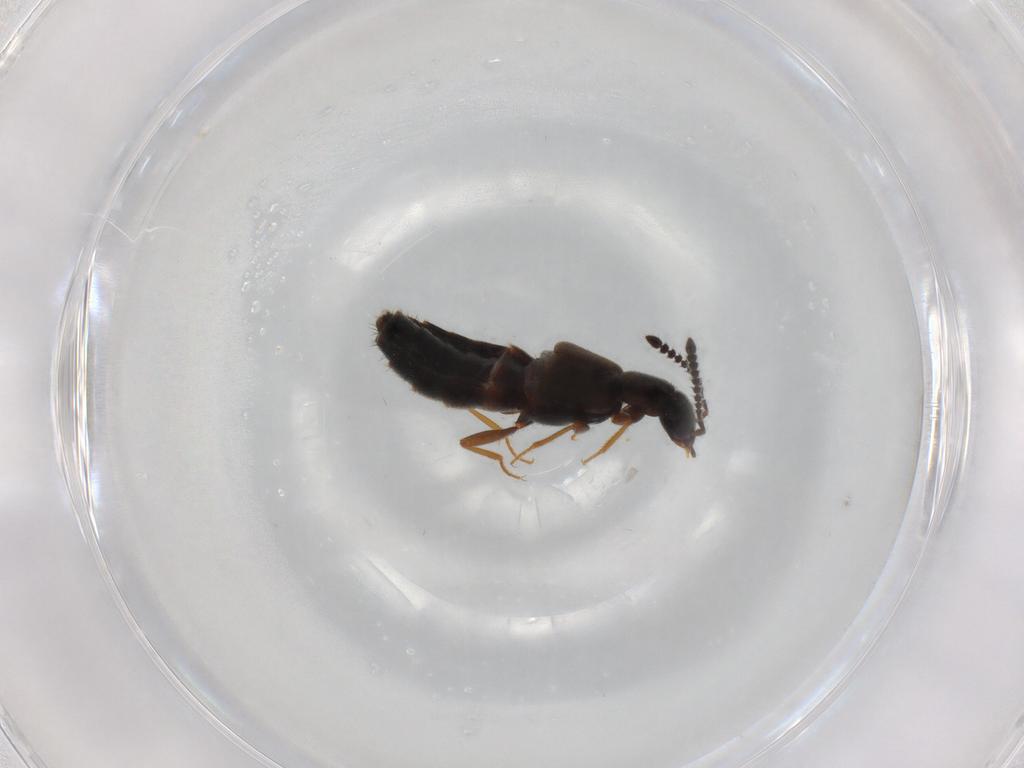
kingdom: Animalia
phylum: Arthropoda
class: Insecta
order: Coleoptera
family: Staphylinidae
